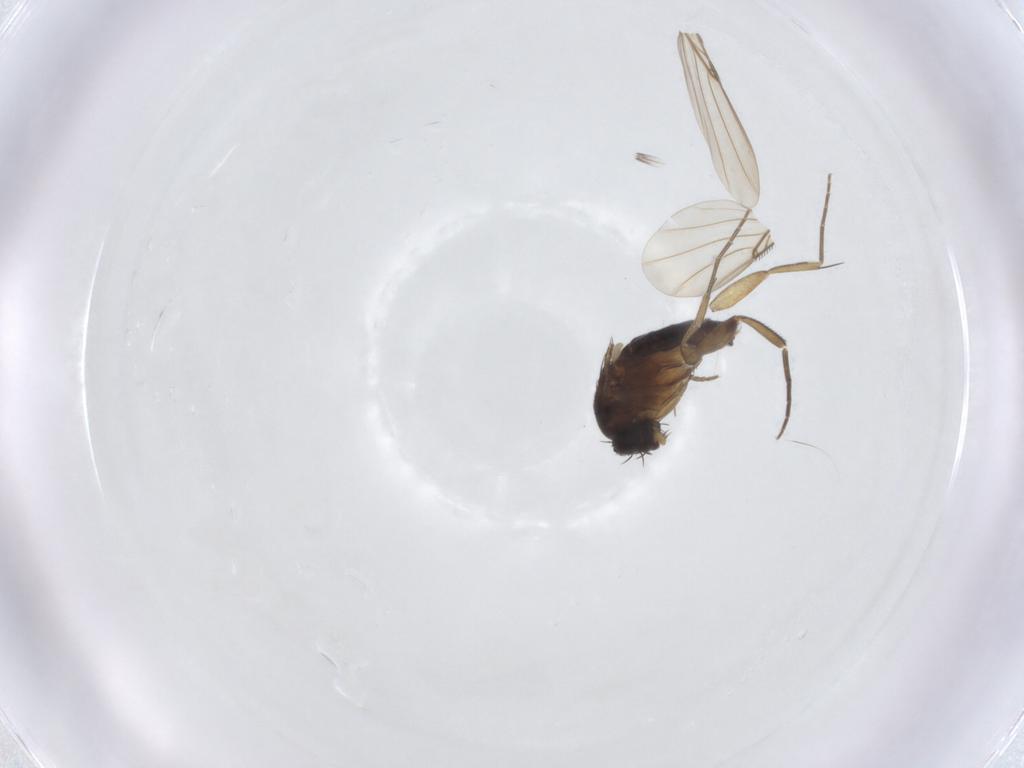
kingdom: Animalia
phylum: Arthropoda
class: Insecta
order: Diptera
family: Phoridae
